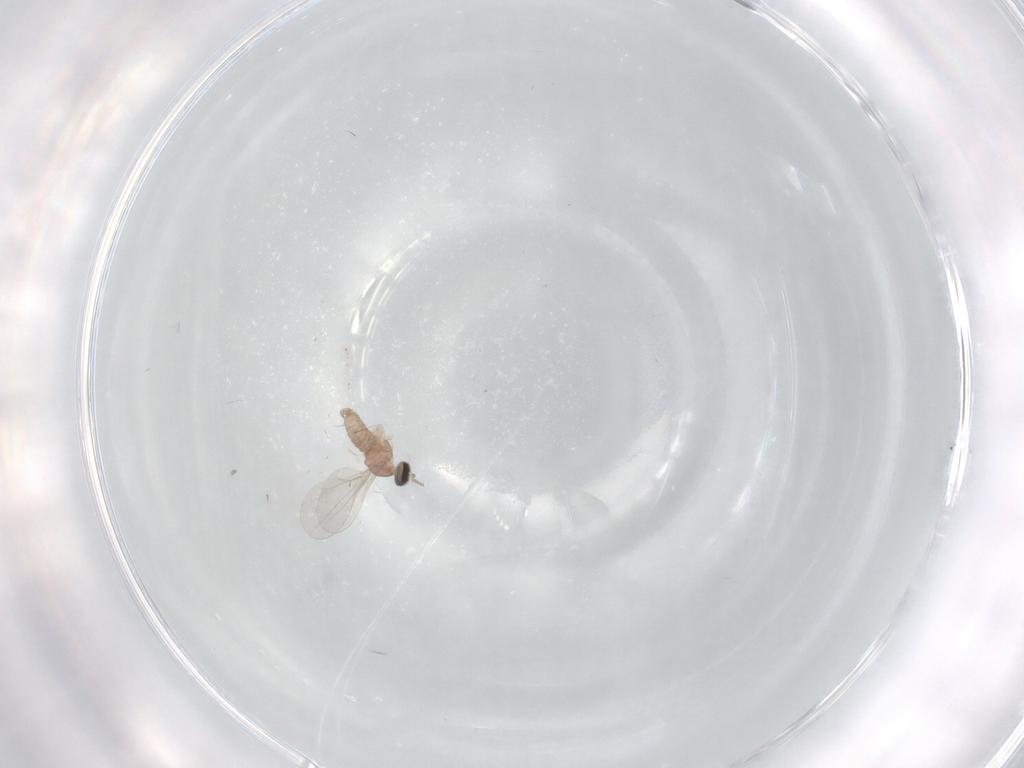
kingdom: Animalia
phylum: Arthropoda
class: Insecta
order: Diptera
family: Cecidomyiidae
